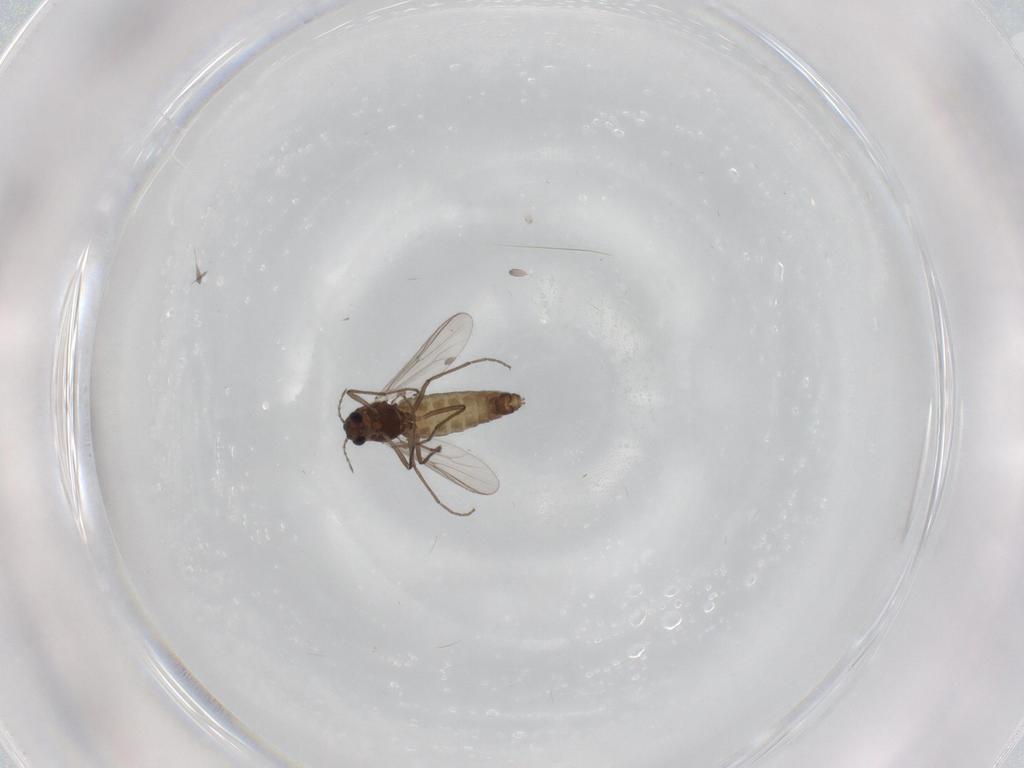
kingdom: Animalia
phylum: Arthropoda
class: Insecta
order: Diptera
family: Chironomidae
